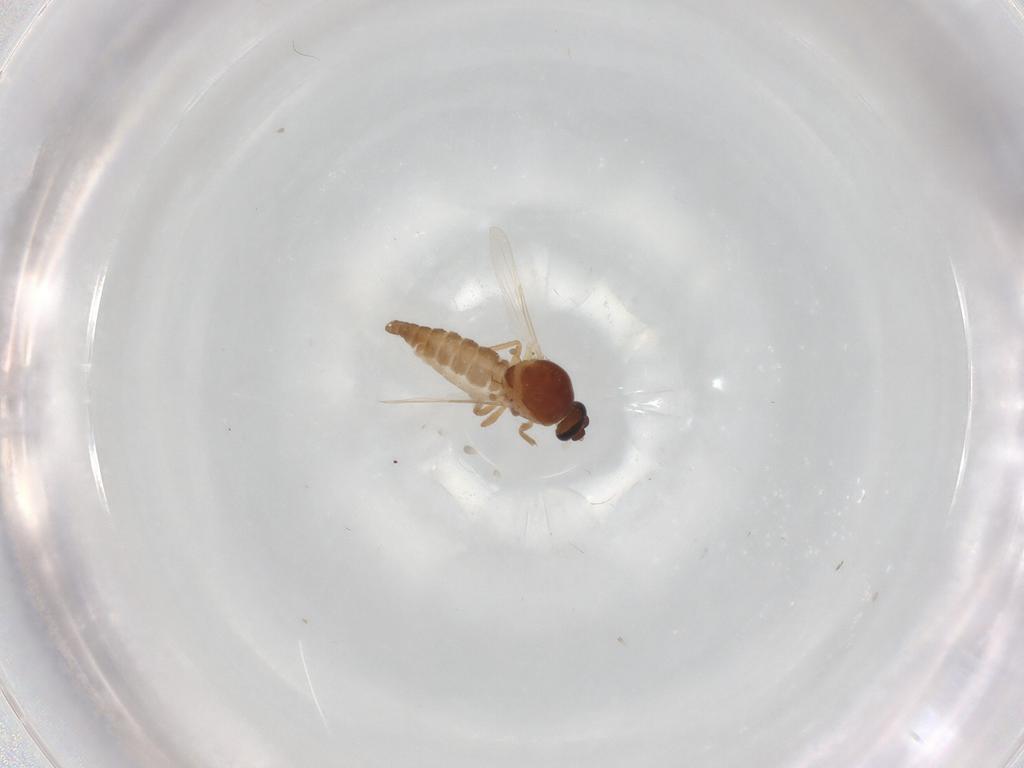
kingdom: Animalia
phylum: Arthropoda
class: Insecta
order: Diptera
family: Ceratopogonidae
